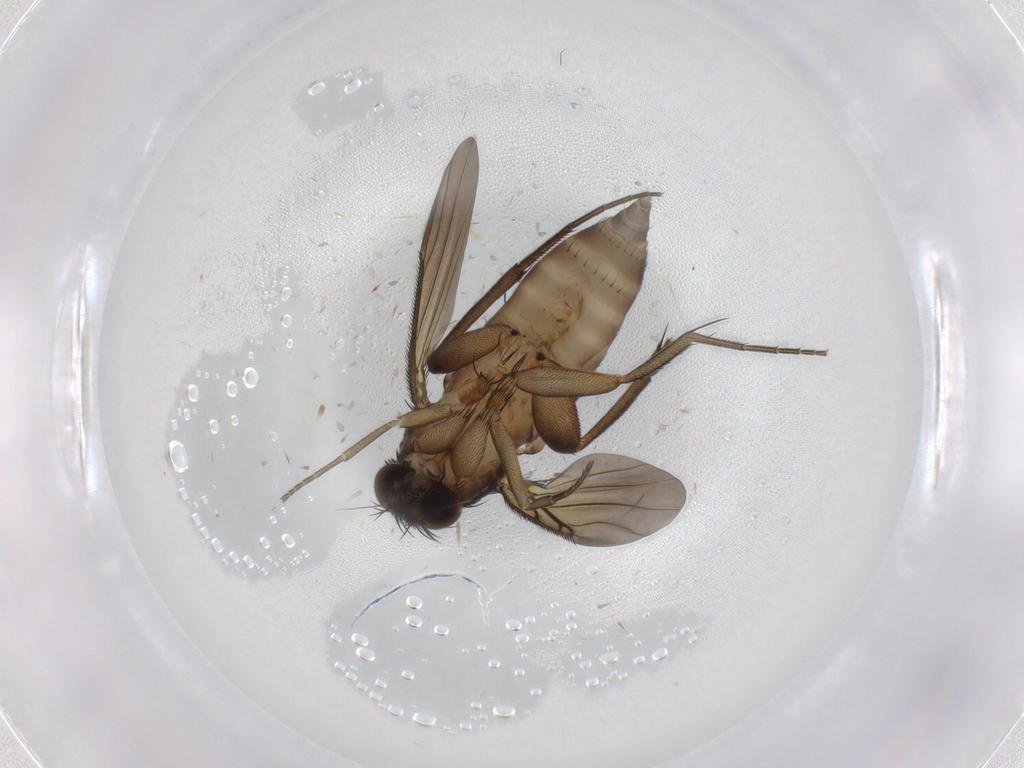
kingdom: Animalia
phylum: Arthropoda
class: Insecta
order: Diptera
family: Phoridae
